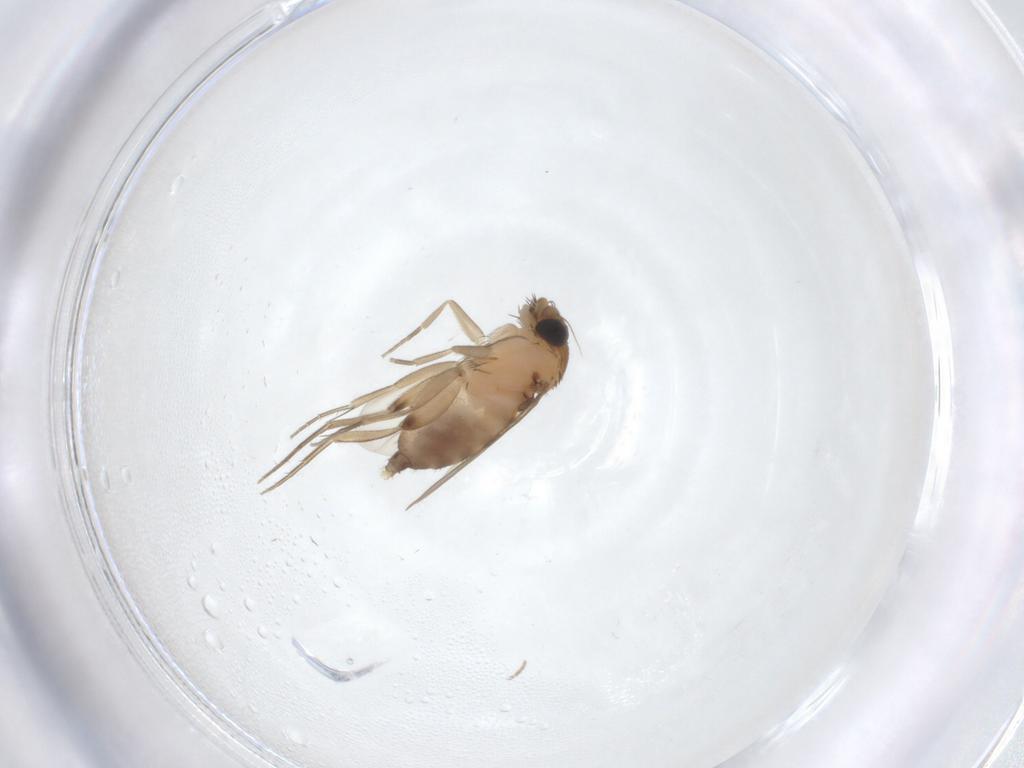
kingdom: Animalia
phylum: Arthropoda
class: Insecta
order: Diptera
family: Phoridae
